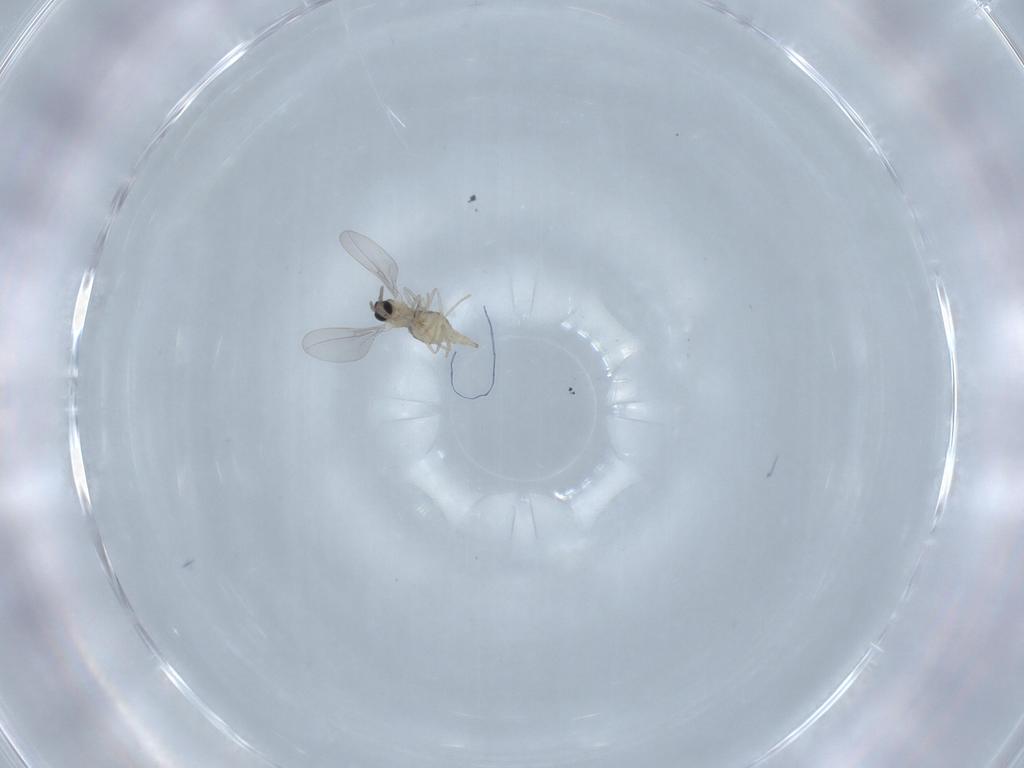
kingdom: Animalia
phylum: Arthropoda
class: Insecta
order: Diptera
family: Cecidomyiidae
